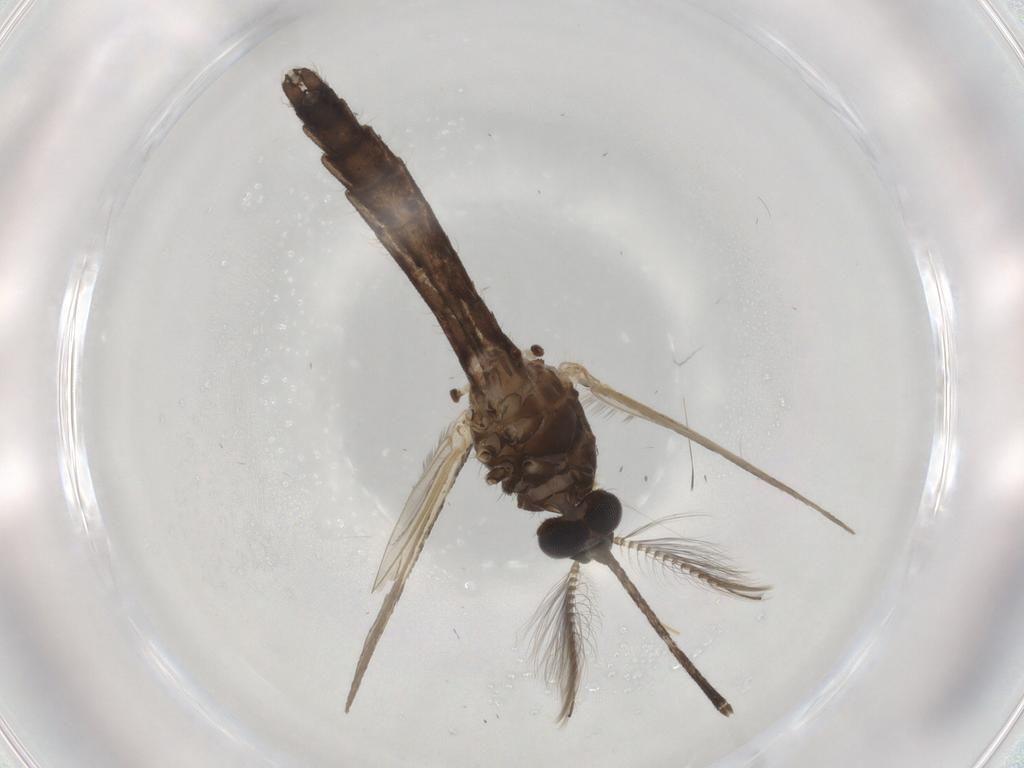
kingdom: Animalia
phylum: Arthropoda
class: Insecta
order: Diptera
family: Ceratopogonidae
